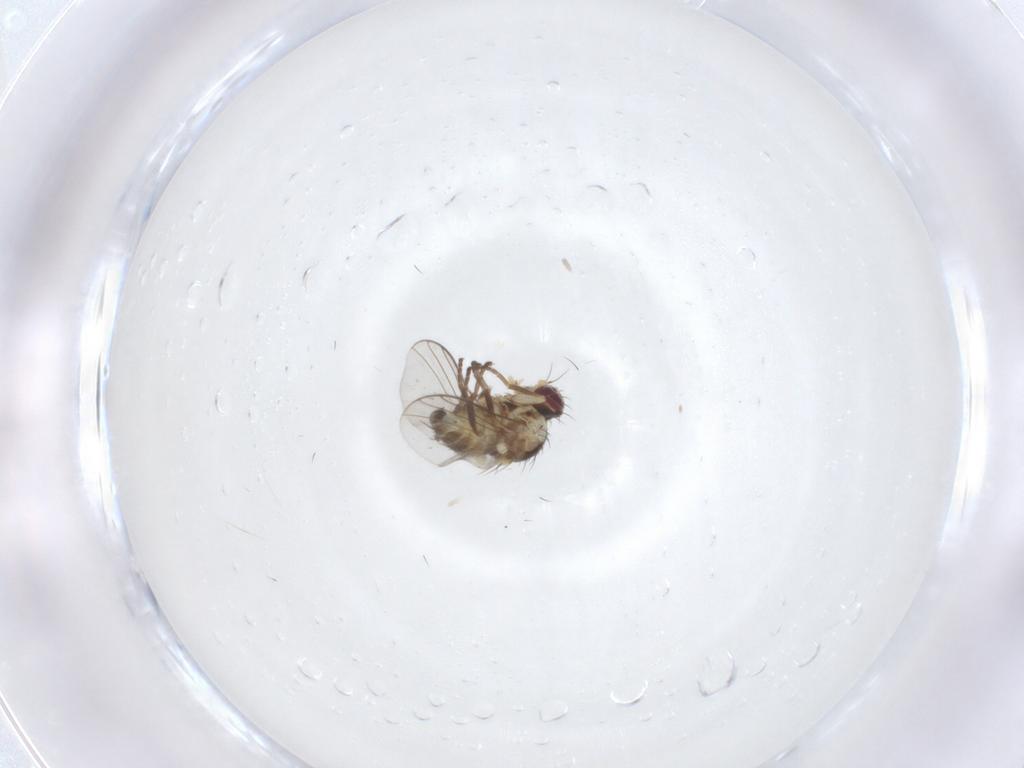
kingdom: Animalia
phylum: Arthropoda
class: Insecta
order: Diptera
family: Agromyzidae
